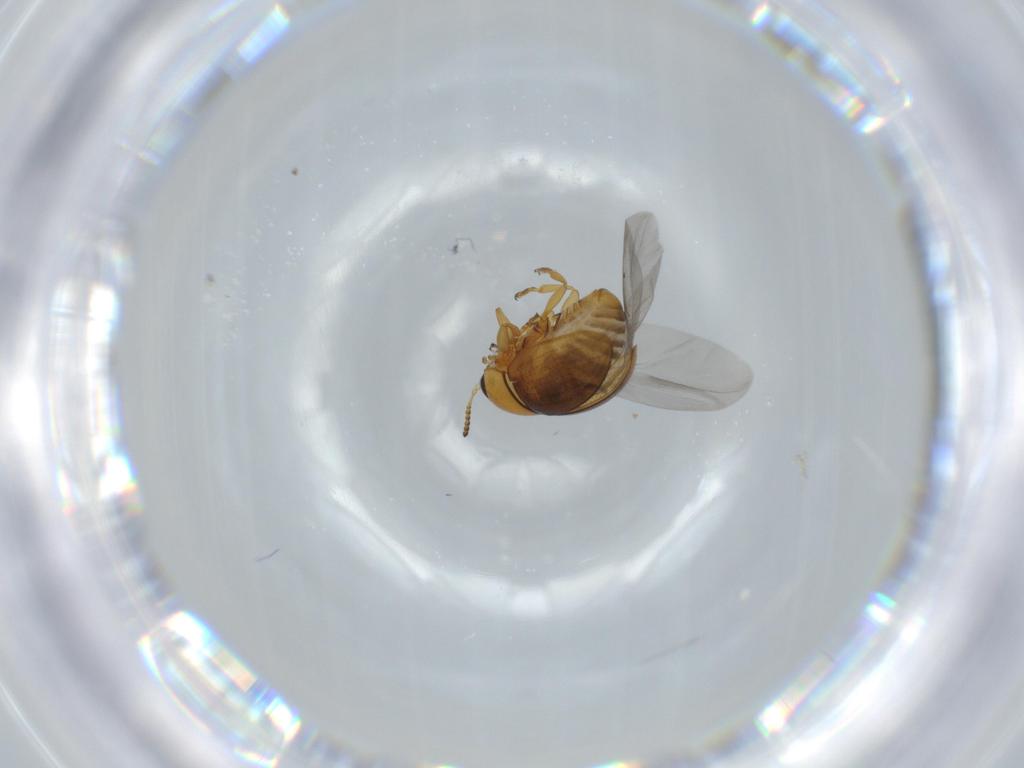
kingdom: Animalia
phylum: Arthropoda
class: Insecta
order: Coleoptera
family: Chrysomelidae
